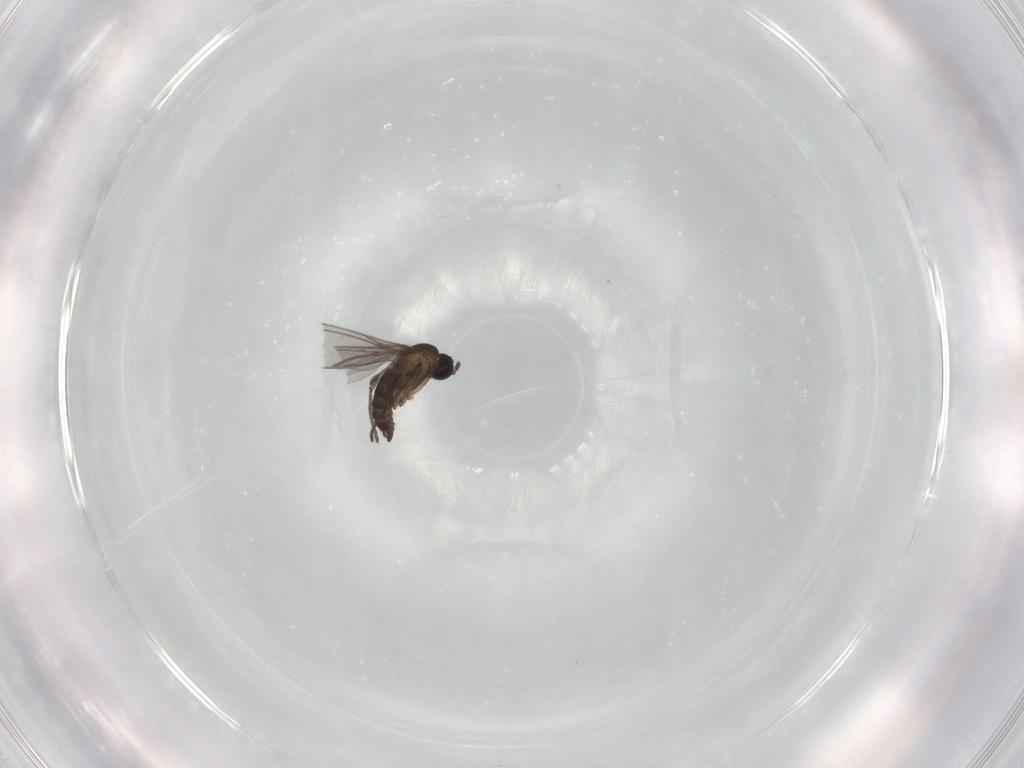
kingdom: Animalia
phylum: Arthropoda
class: Insecta
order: Diptera
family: Sciaridae
